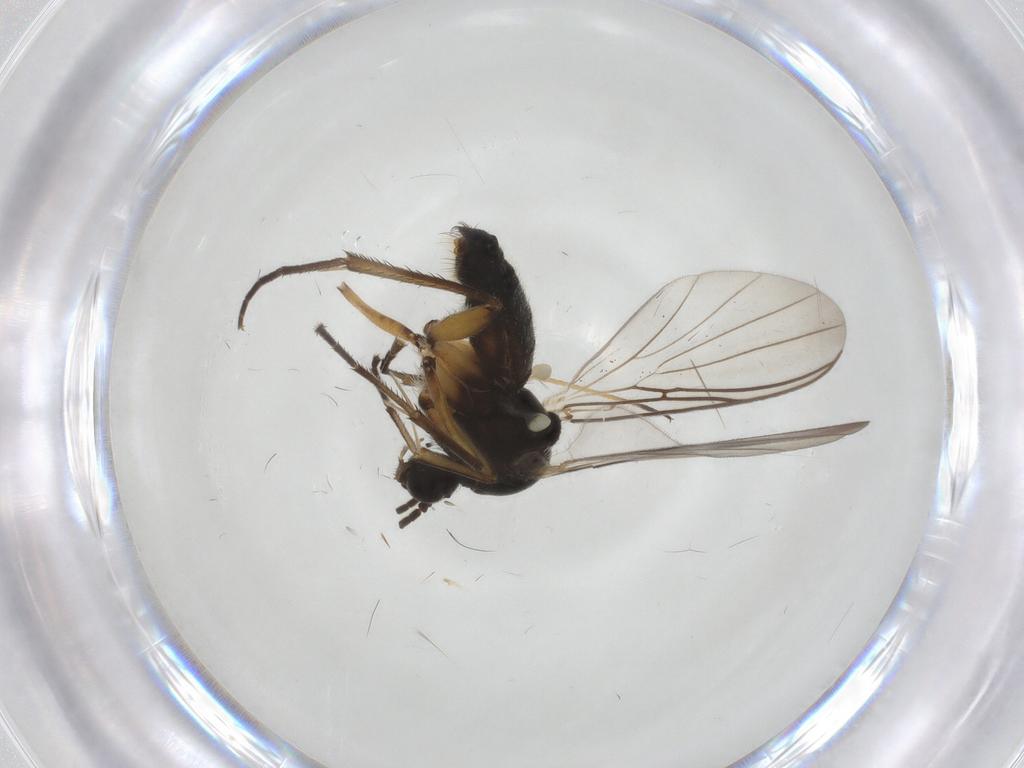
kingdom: Animalia
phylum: Arthropoda
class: Insecta
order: Diptera
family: Mycetophilidae
